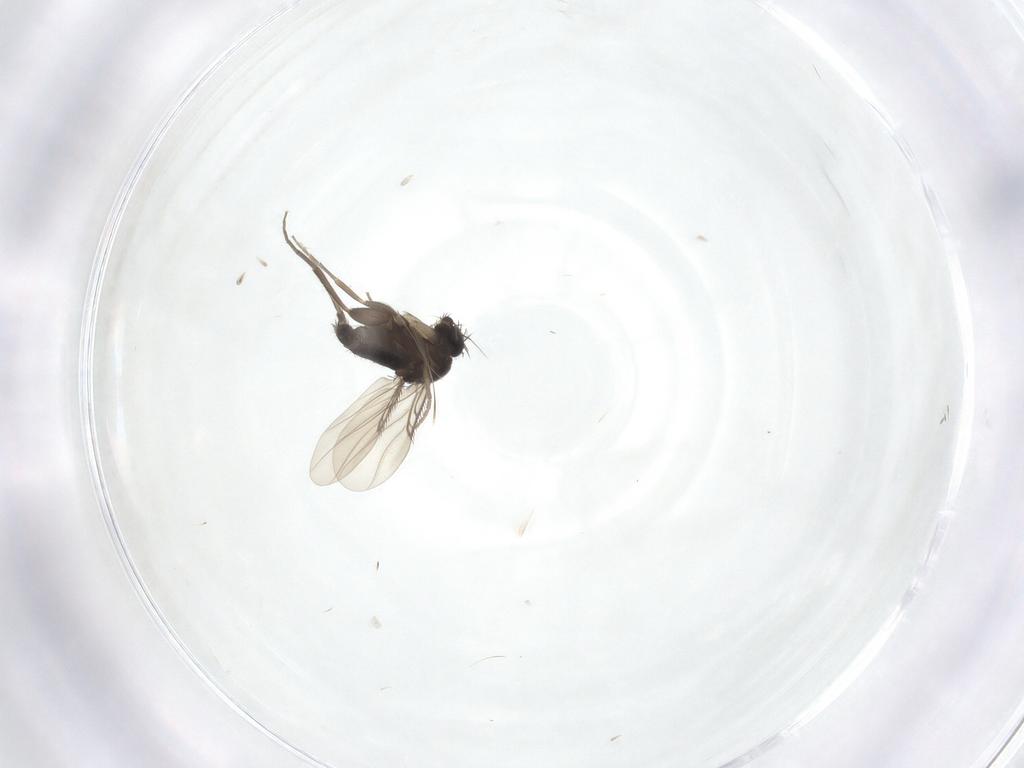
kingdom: Animalia
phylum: Arthropoda
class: Insecta
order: Diptera
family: Phoridae
